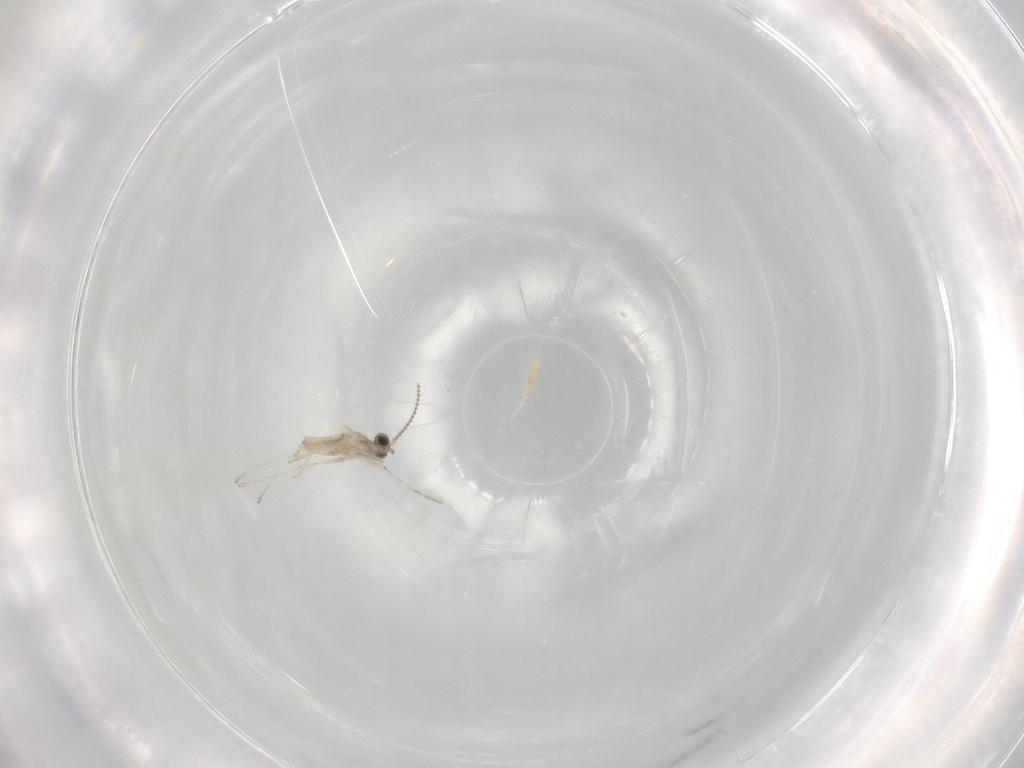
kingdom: Animalia
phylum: Arthropoda
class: Insecta
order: Diptera
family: Cecidomyiidae
